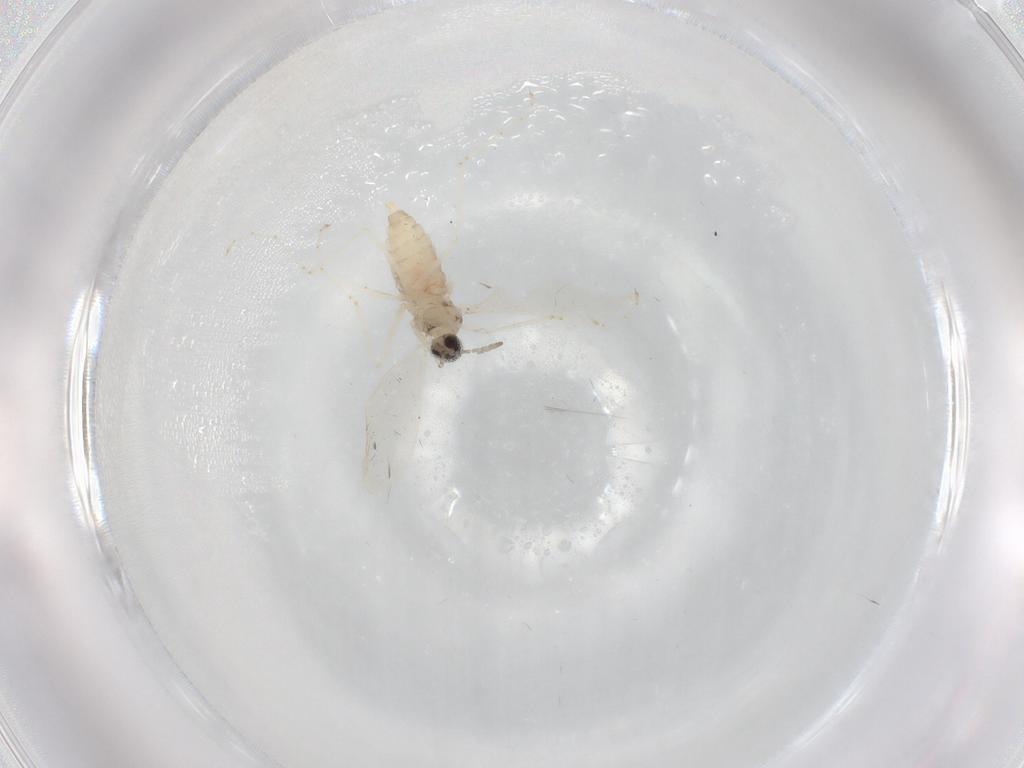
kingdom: Animalia
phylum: Arthropoda
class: Insecta
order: Diptera
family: Cecidomyiidae
